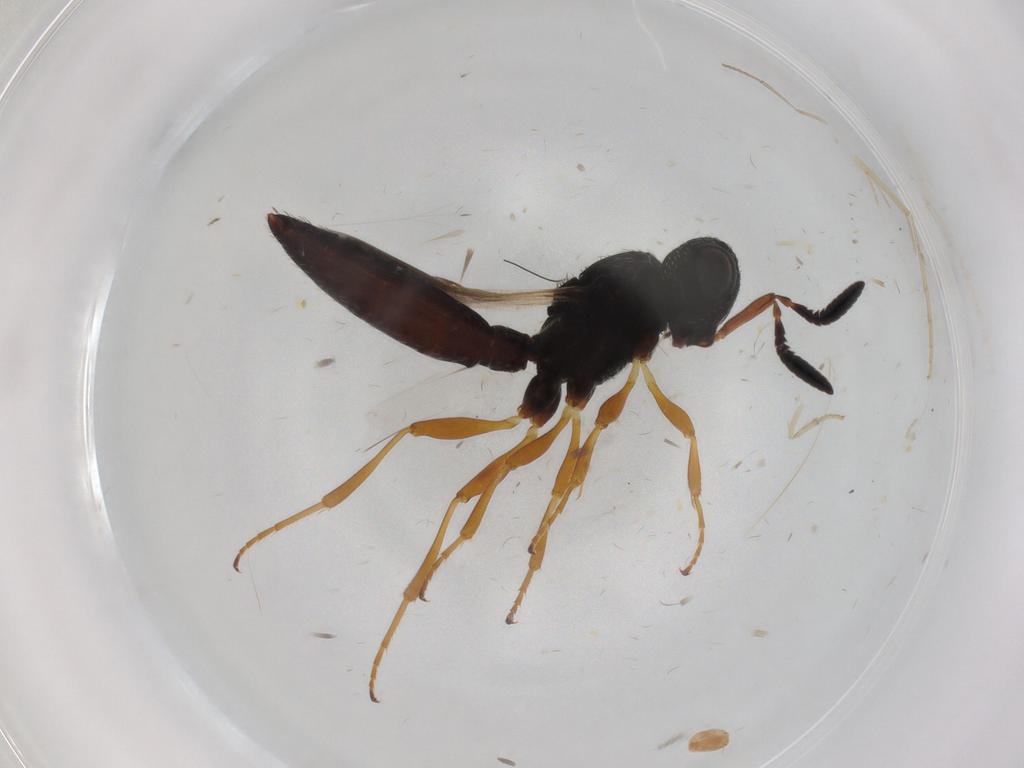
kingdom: Animalia
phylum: Arthropoda
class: Insecta
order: Hymenoptera
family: Scelionidae
